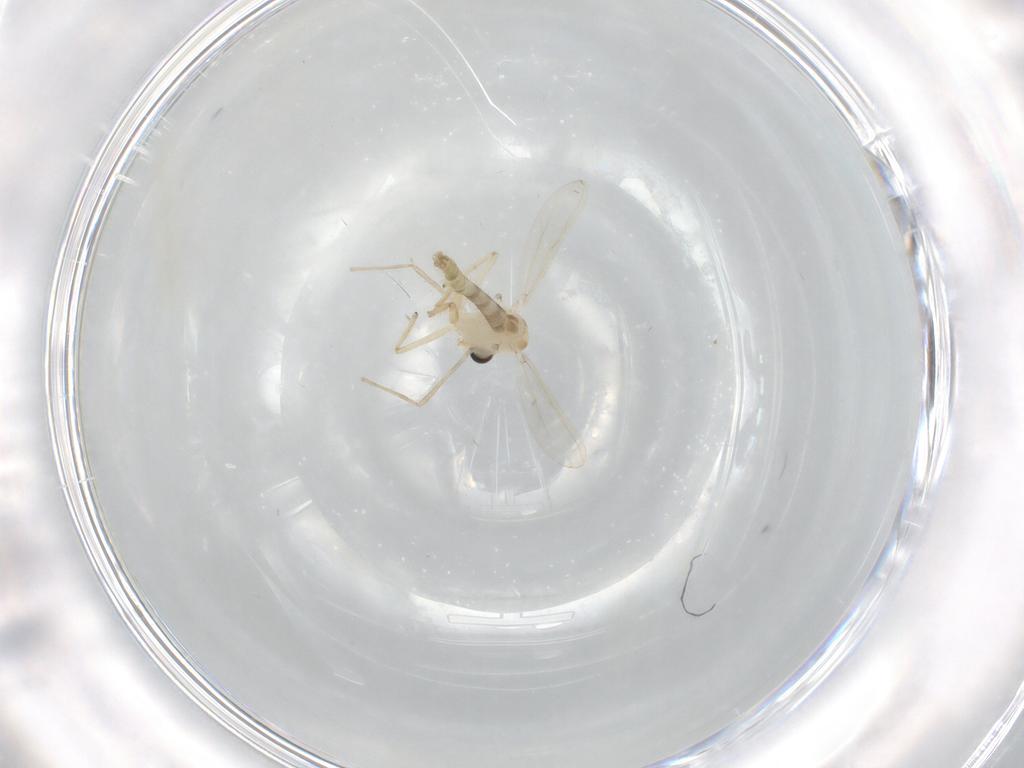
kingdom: Animalia
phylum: Arthropoda
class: Insecta
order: Diptera
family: Chironomidae
